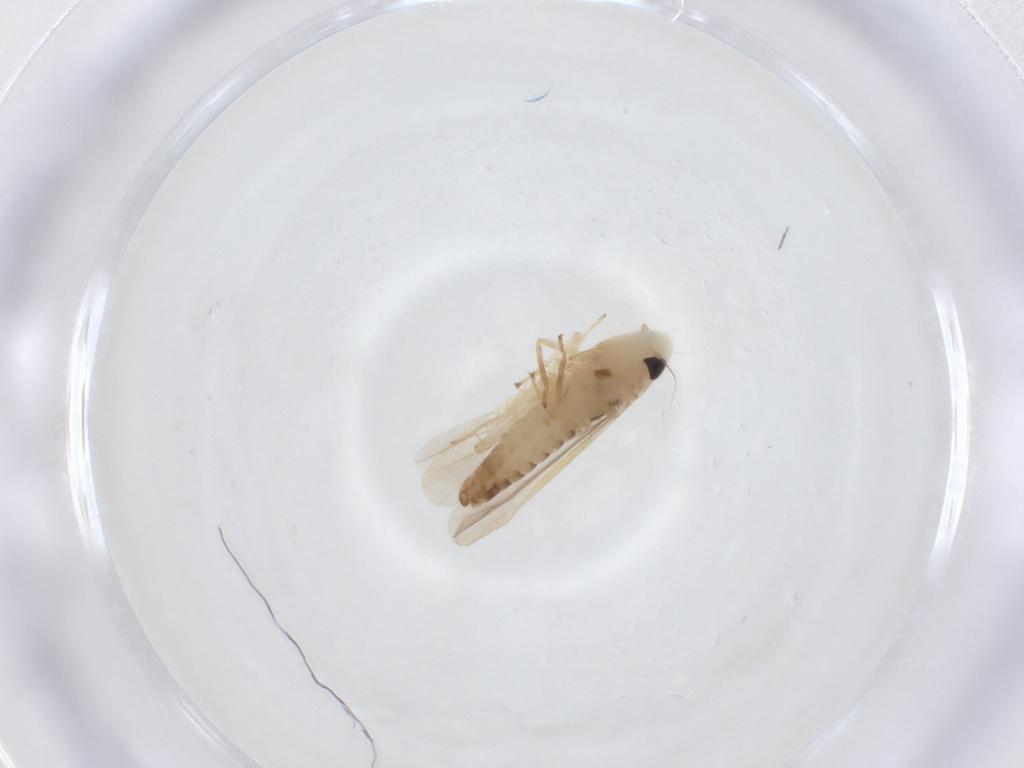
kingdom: Animalia
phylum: Arthropoda
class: Insecta
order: Hemiptera
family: Cicadellidae
